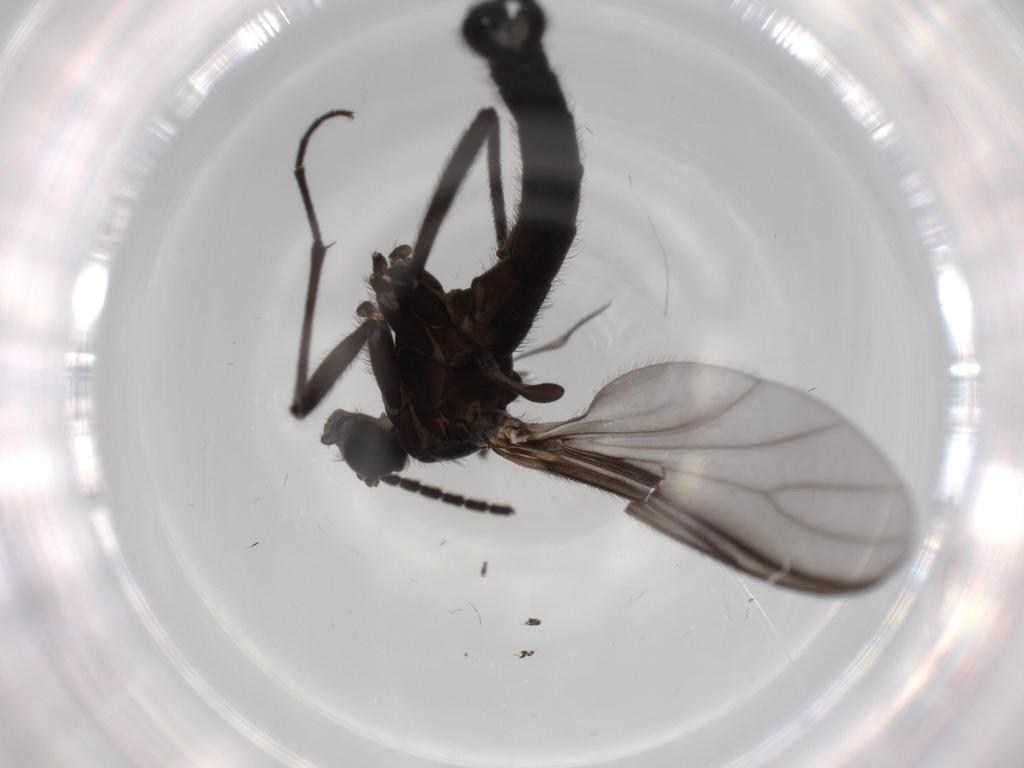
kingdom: Animalia
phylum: Arthropoda
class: Insecta
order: Diptera
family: Sciaridae
